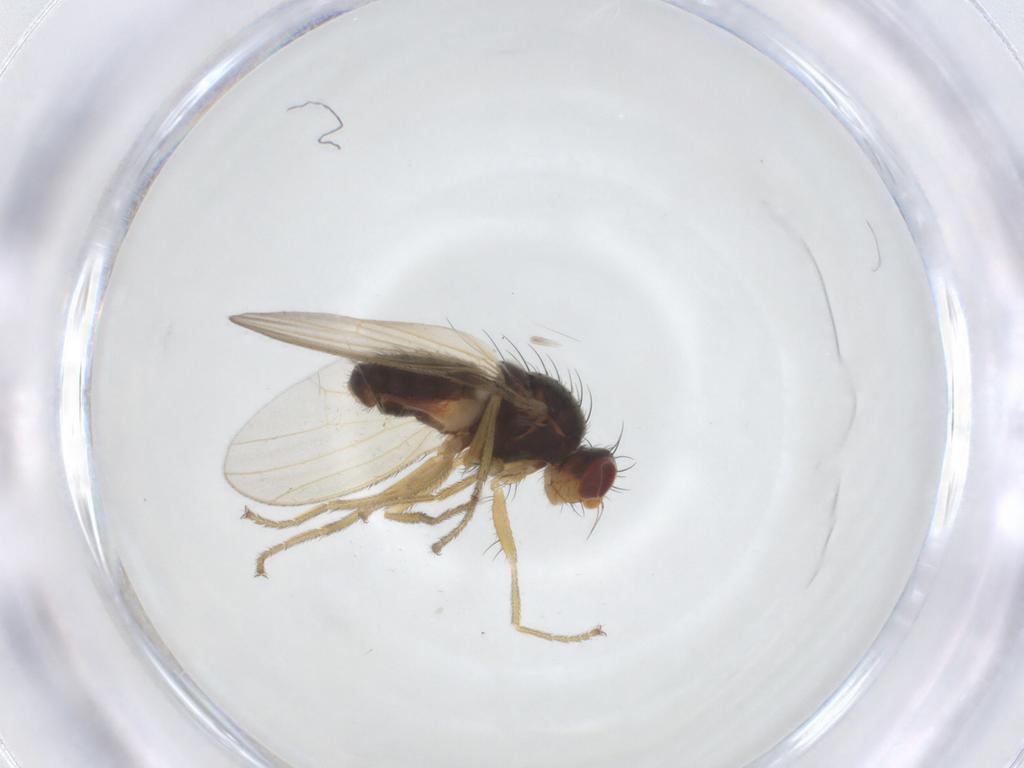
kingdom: Animalia
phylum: Arthropoda
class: Insecta
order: Diptera
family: Heleomyzidae
